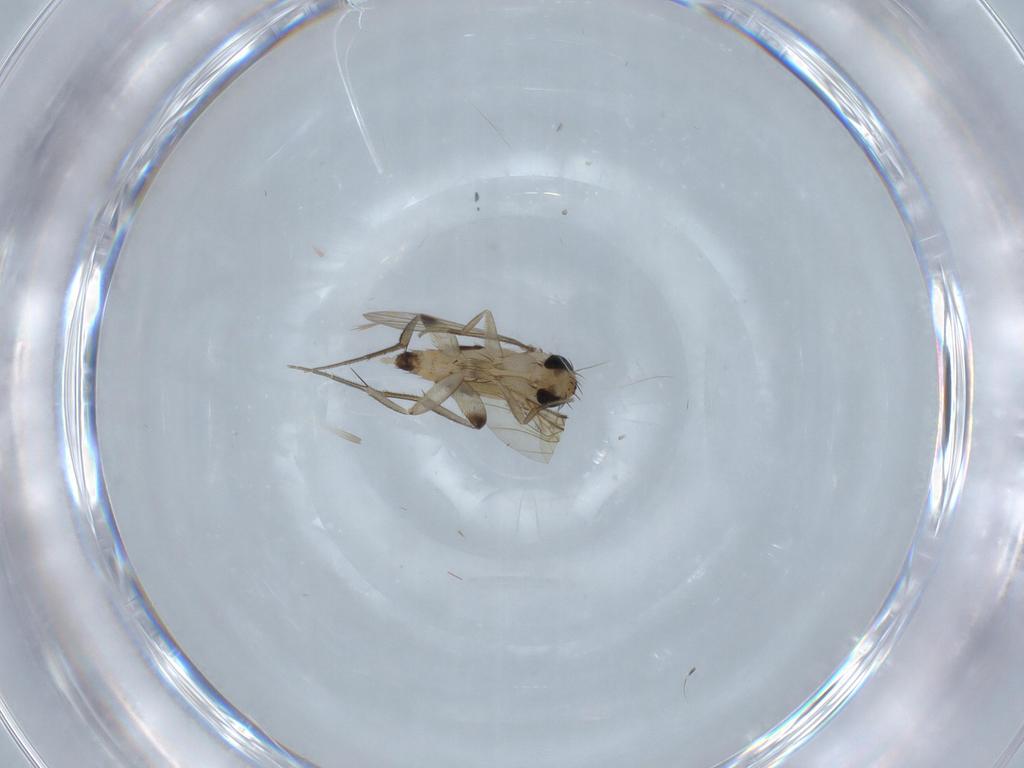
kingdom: Animalia
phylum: Arthropoda
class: Insecta
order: Diptera
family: Phoridae
